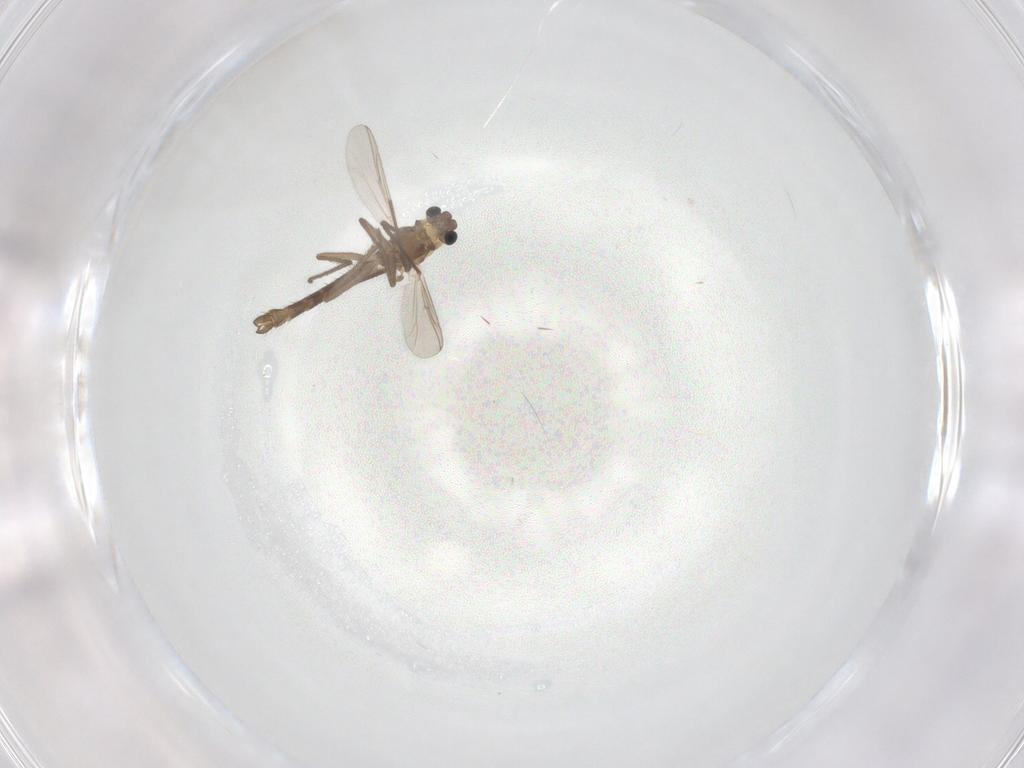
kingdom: Animalia
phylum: Arthropoda
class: Insecta
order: Diptera
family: Chironomidae
